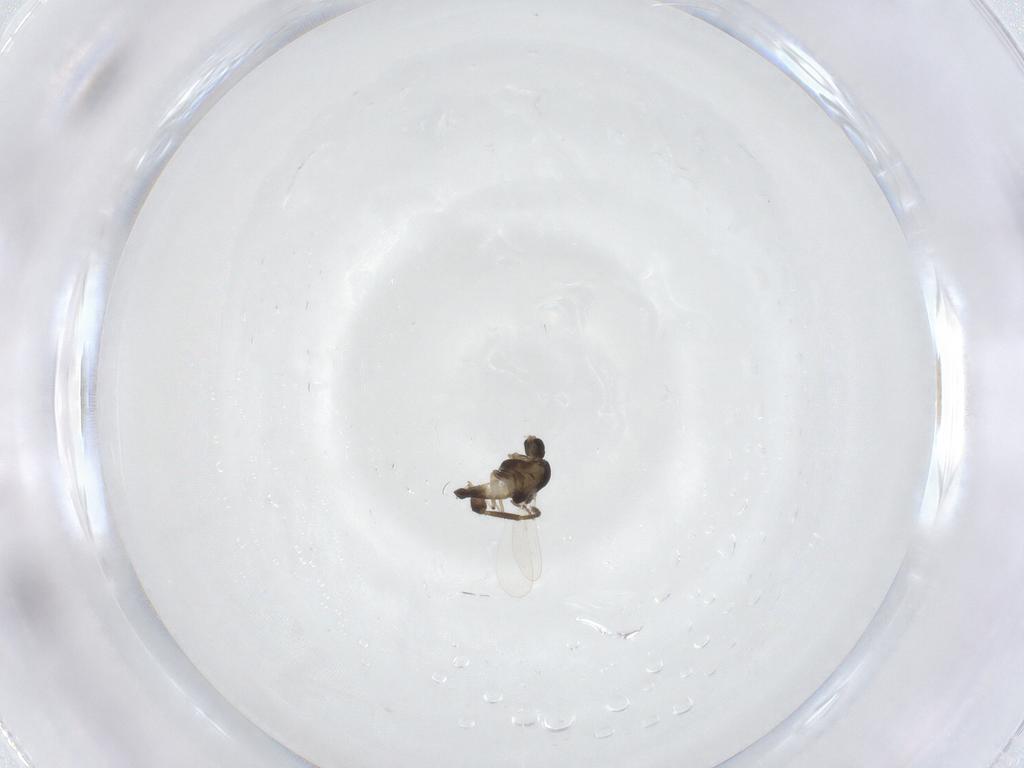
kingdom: Animalia
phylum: Arthropoda
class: Insecta
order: Diptera
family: Chironomidae
